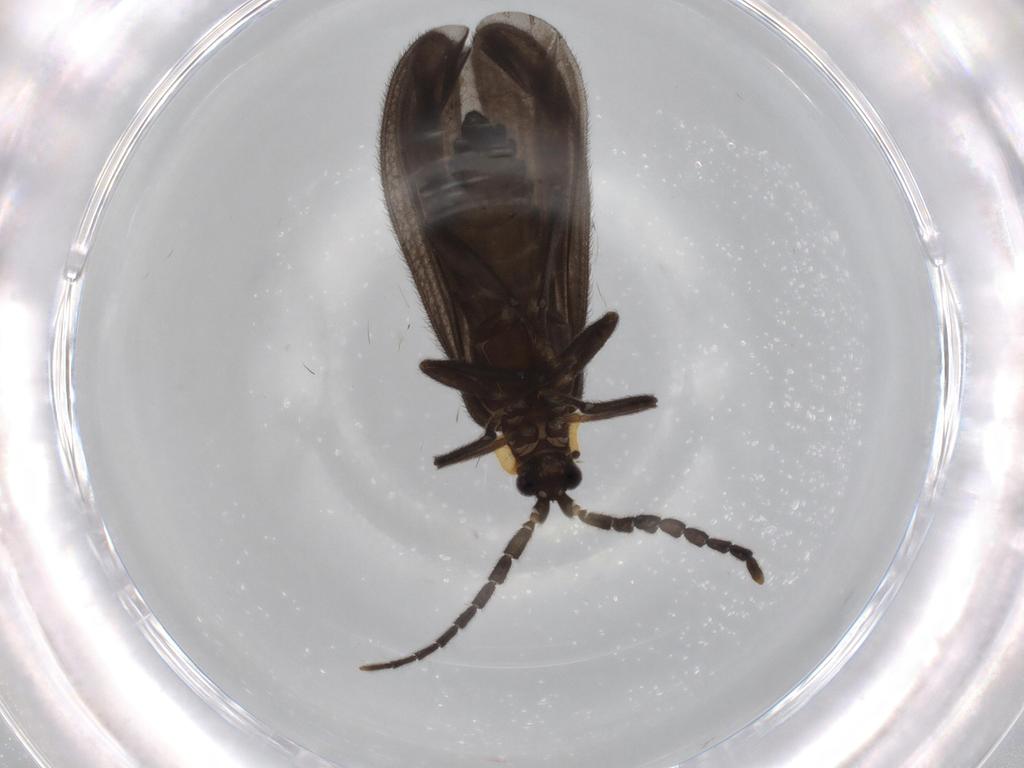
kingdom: Animalia
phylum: Arthropoda
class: Insecta
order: Coleoptera
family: Lycidae
